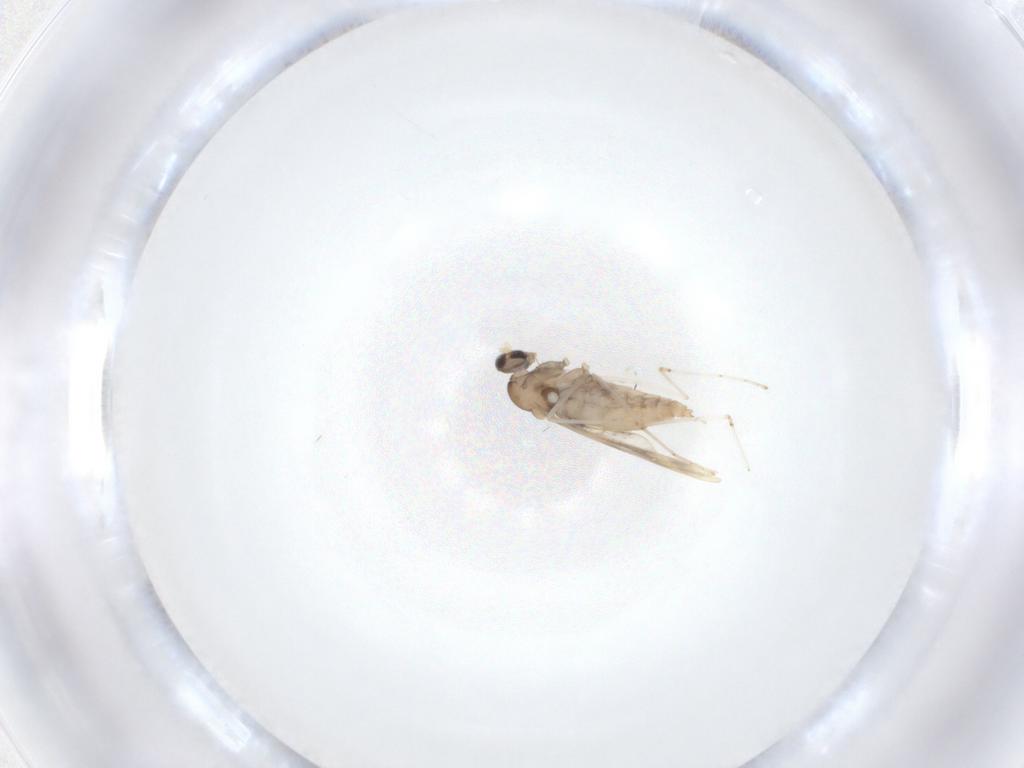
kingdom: Animalia
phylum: Arthropoda
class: Insecta
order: Diptera
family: Cecidomyiidae
